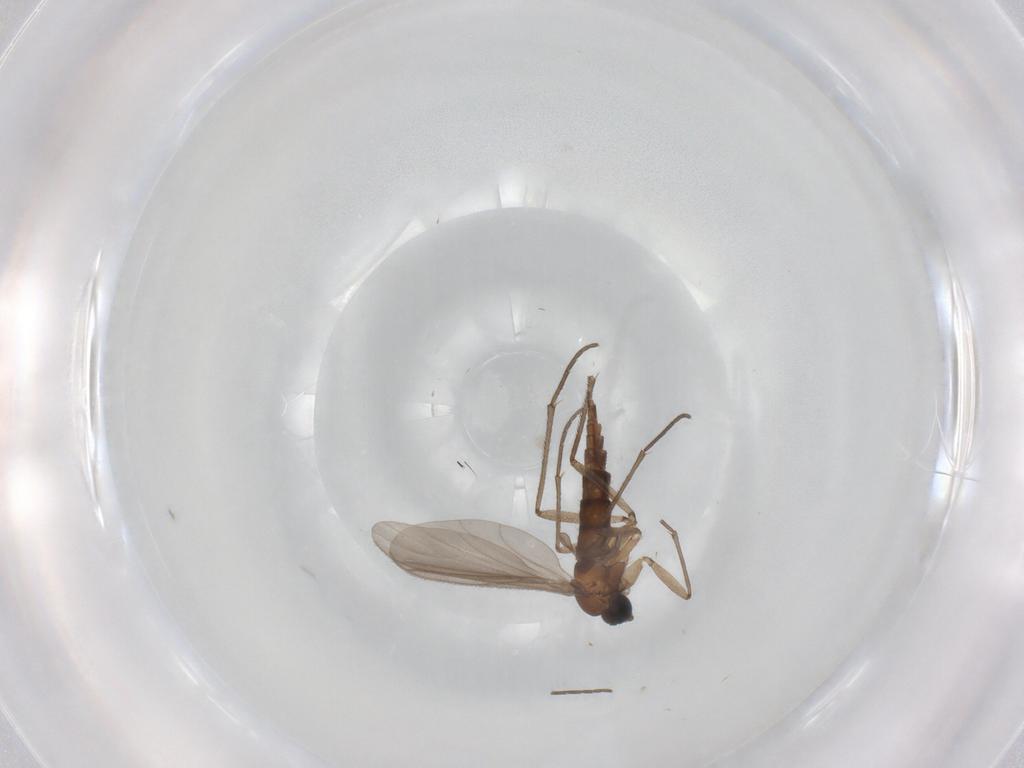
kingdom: Animalia
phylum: Arthropoda
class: Insecta
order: Diptera
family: Sciaridae
